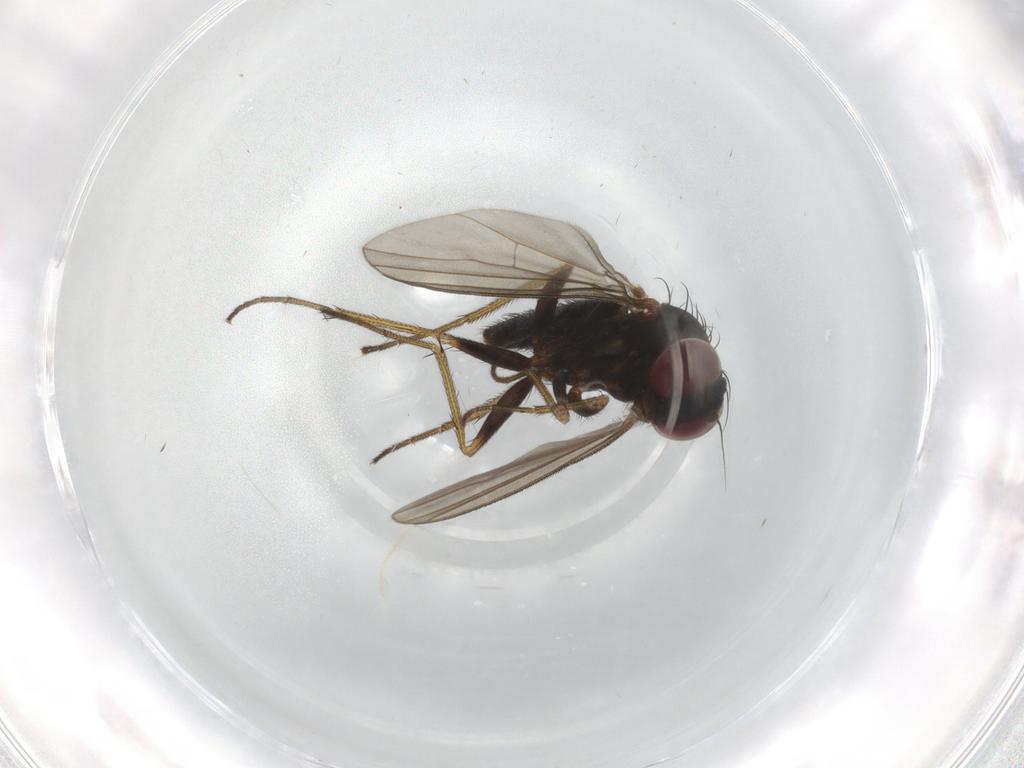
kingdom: Animalia
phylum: Arthropoda
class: Insecta
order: Diptera
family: Dolichopodidae
